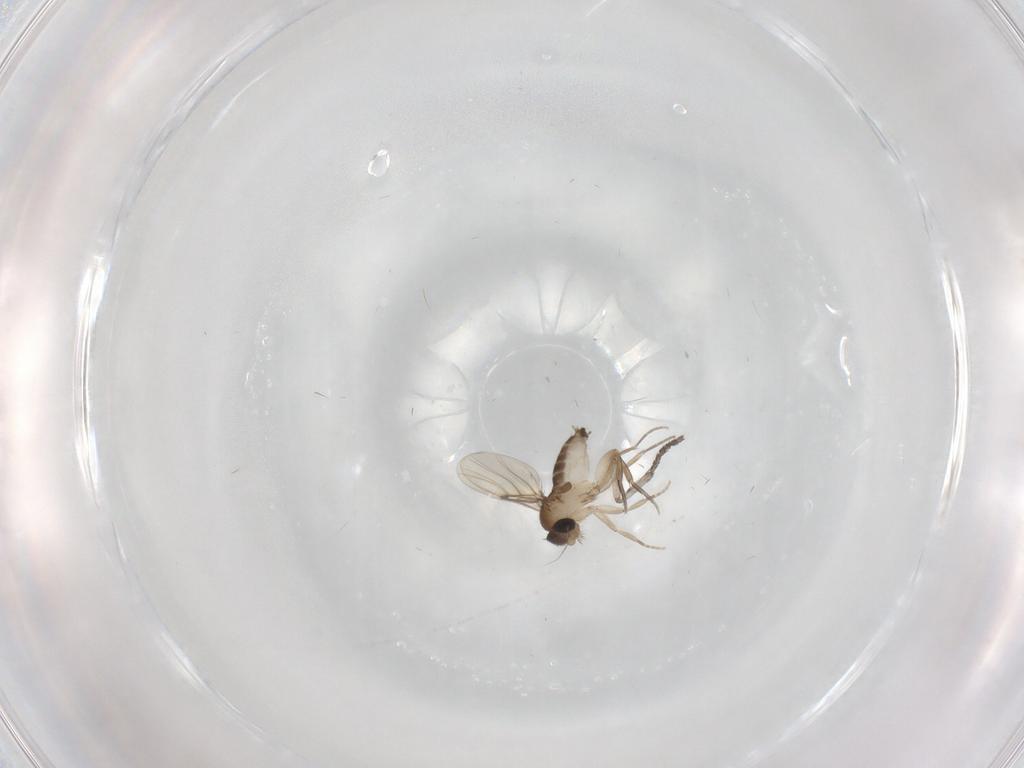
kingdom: Animalia
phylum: Arthropoda
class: Insecta
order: Diptera
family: Phoridae
